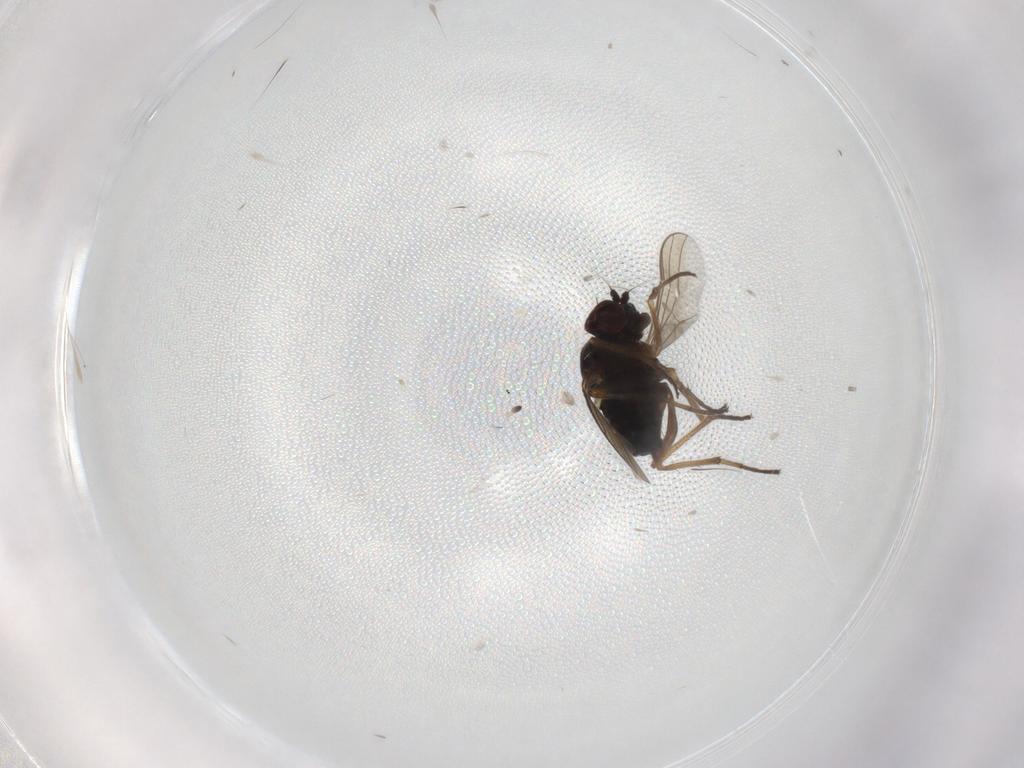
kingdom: Animalia
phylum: Arthropoda
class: Insecta
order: Diptera
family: Dolichopodidae
